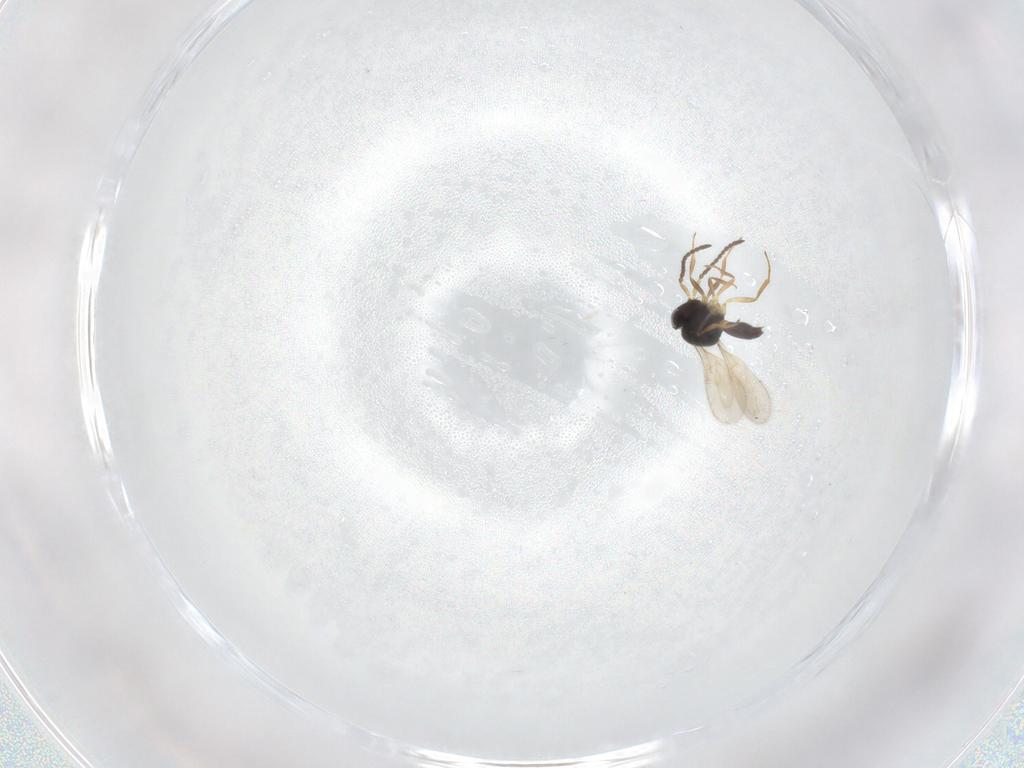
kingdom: Animalia
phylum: Arthropoda
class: Insecta
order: Hymenoptera
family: Scelionidae
